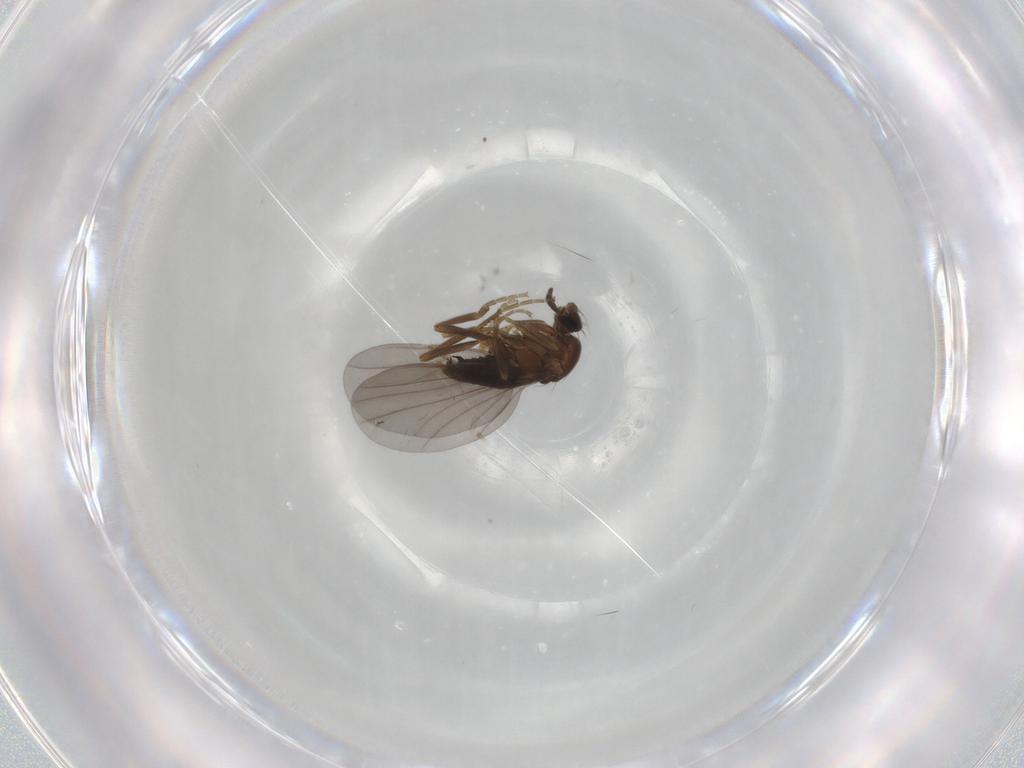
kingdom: Animalia
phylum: Arthropoda
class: Insecta
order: Diptera
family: Phoridae
